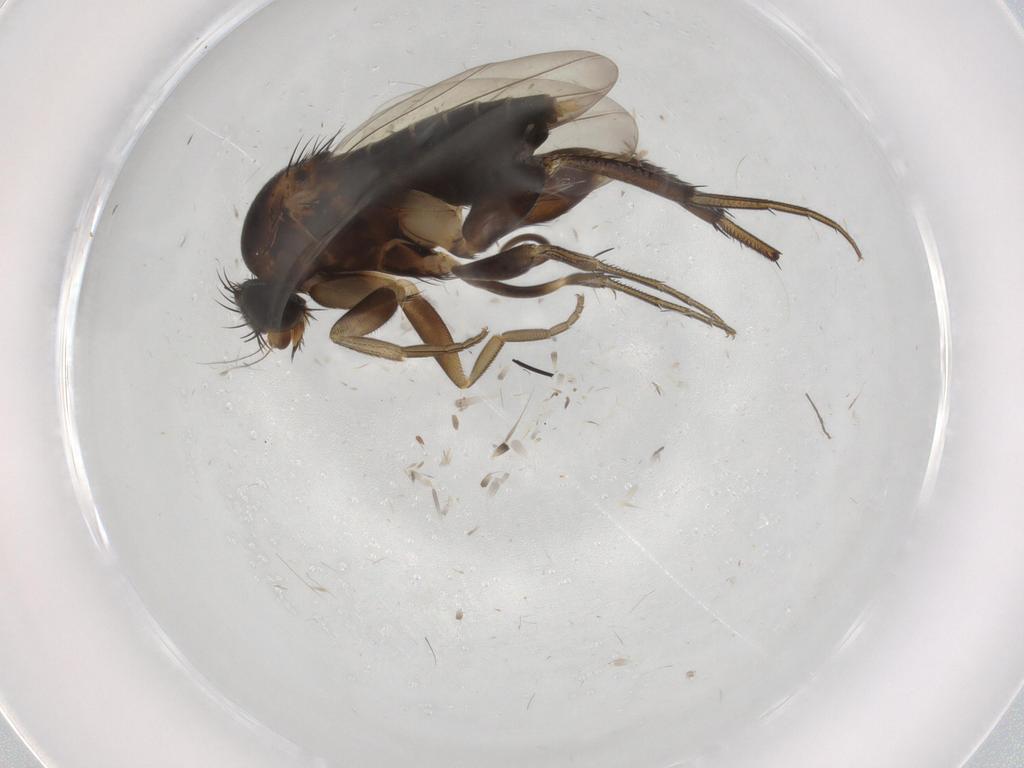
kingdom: Animalia
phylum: Arthropoda
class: Insecta
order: Diptera
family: Phoridae
